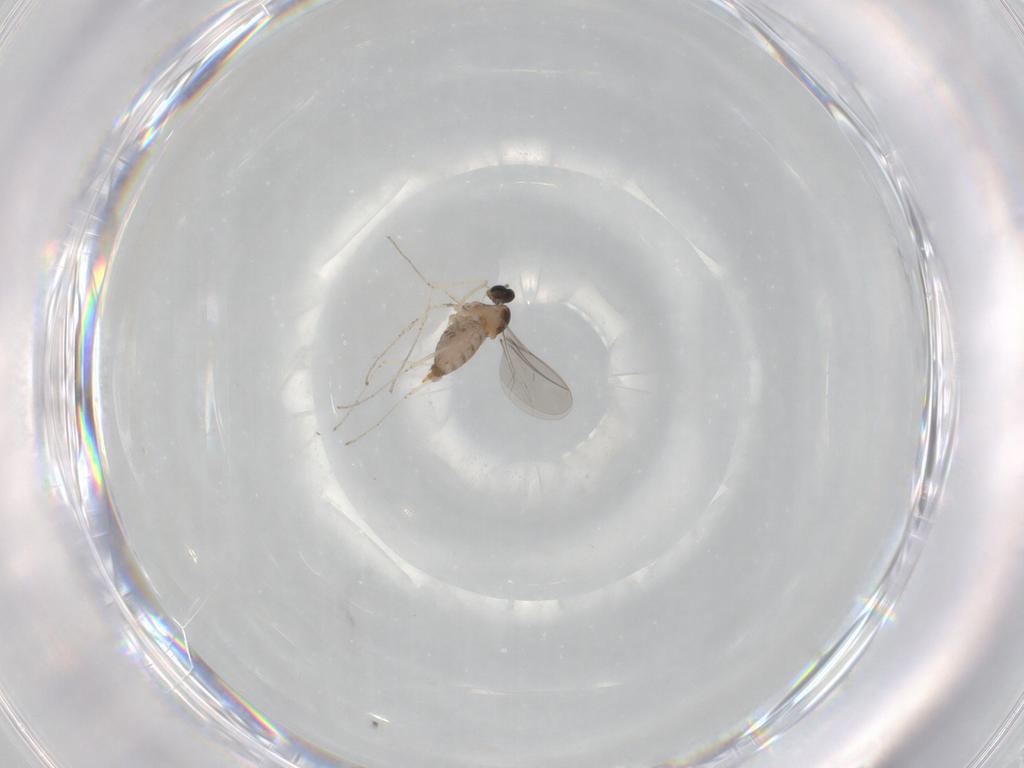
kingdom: Animalia
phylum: Arthropoda
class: Insecta
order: Diptera
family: Cecidomyiidae
